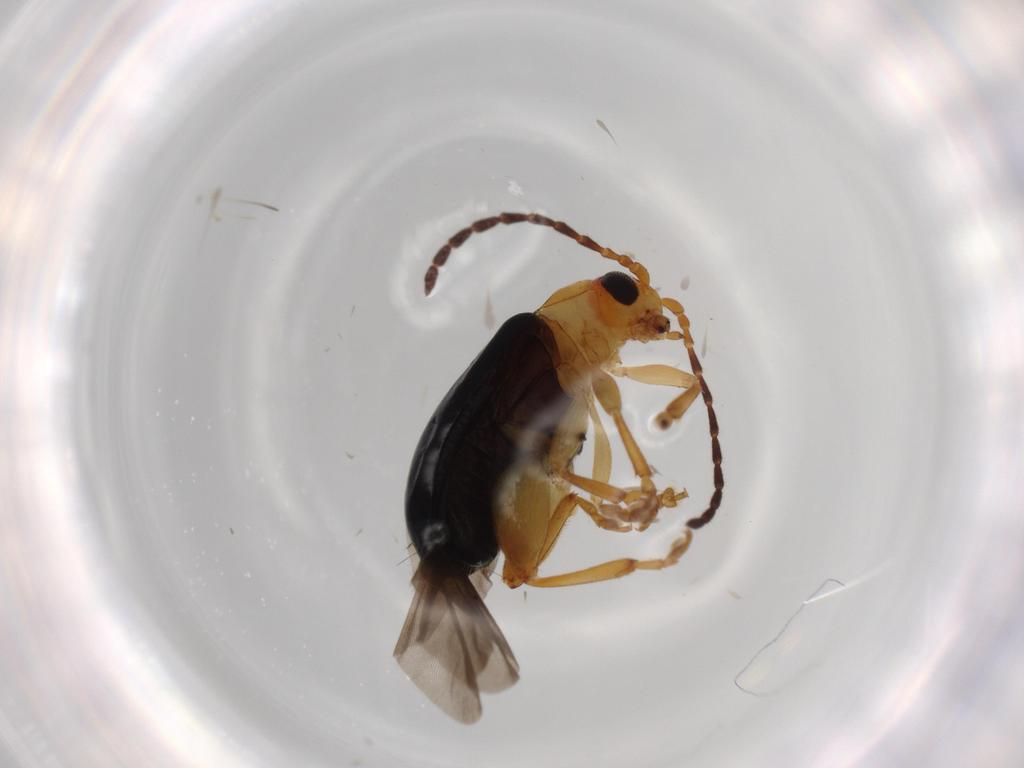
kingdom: Animalia
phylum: Arthropoda
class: Insecta
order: Coleoptera
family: Chrysomelidae
